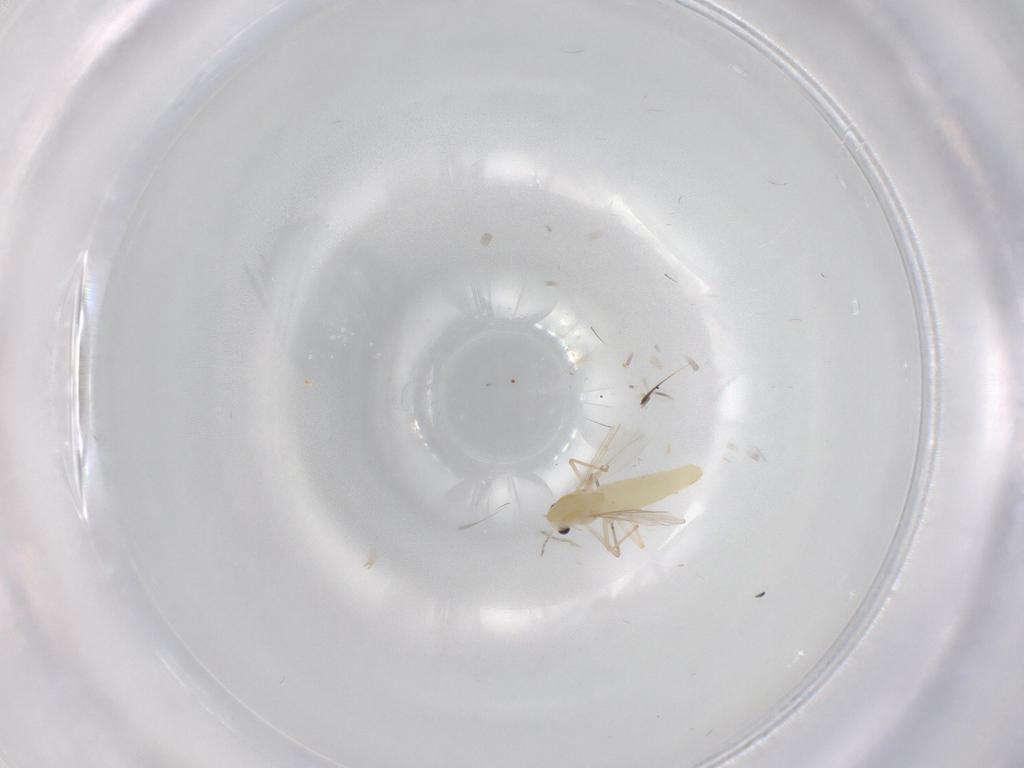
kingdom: Animalia
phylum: Arthropoda
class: Insecta
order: Diptera
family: Chironomidae
